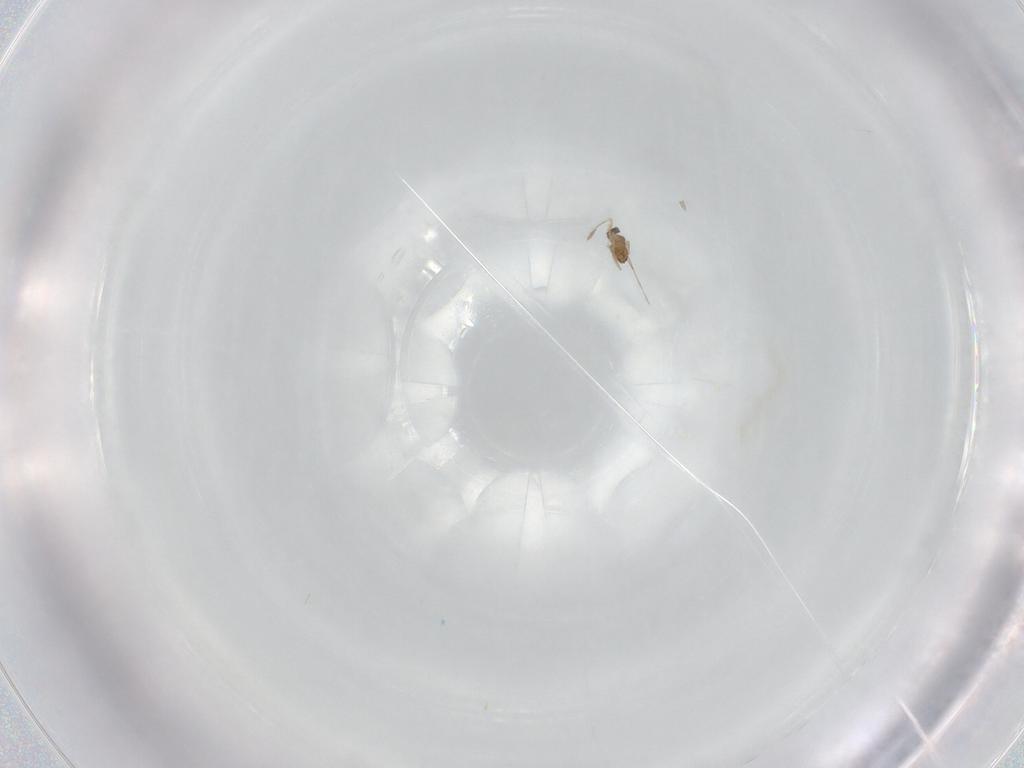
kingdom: Animalia
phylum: Arthropoda
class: Insecta
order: Hymenoptera
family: Mymaridae
